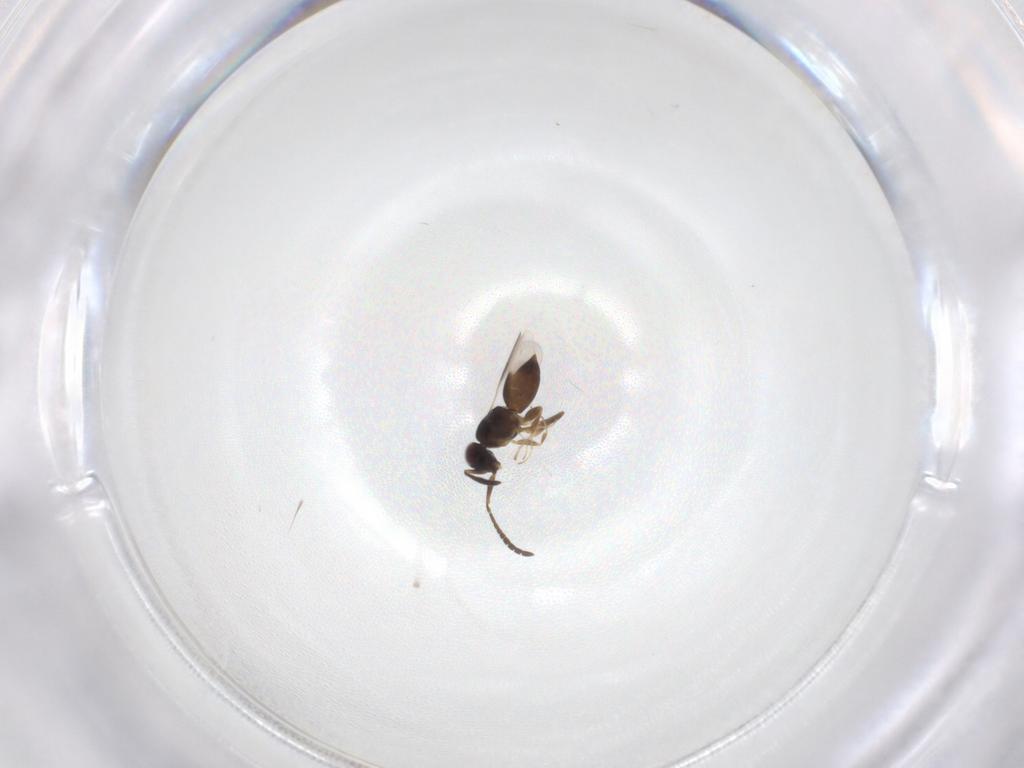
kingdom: Animalia
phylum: Arthropoda
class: Insecta
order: Hymenoptera
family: Ceraphronidae
